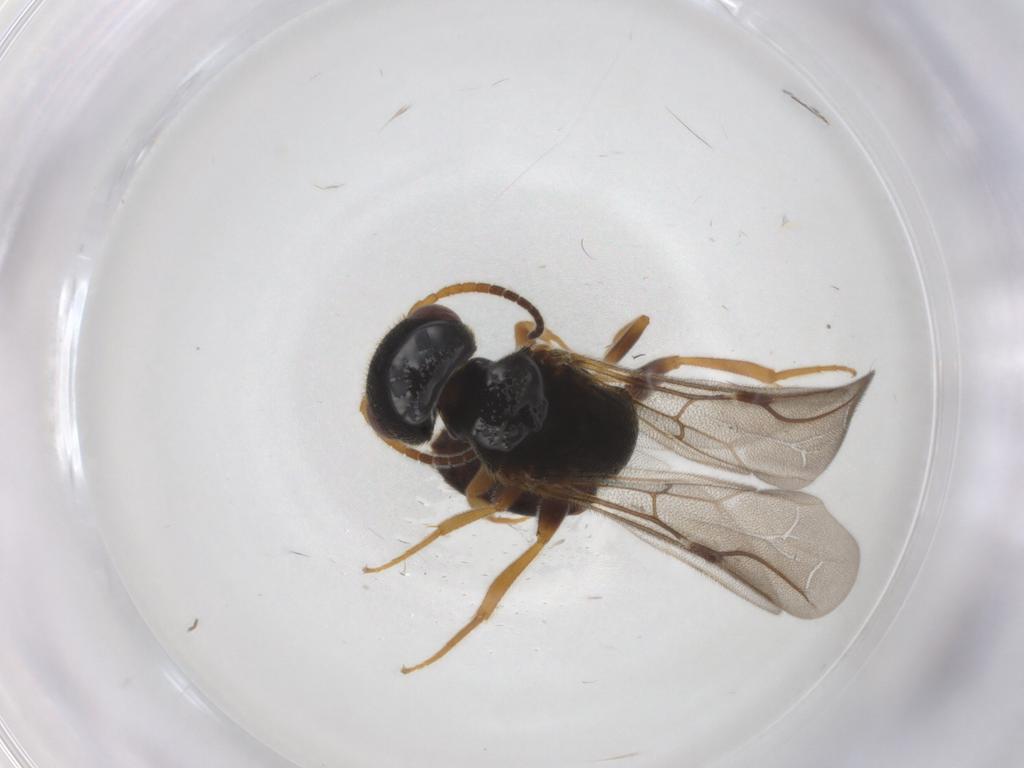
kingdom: Animalia
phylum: Arthropoda
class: Insecta
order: Hymenoptera
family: Bethylidae
